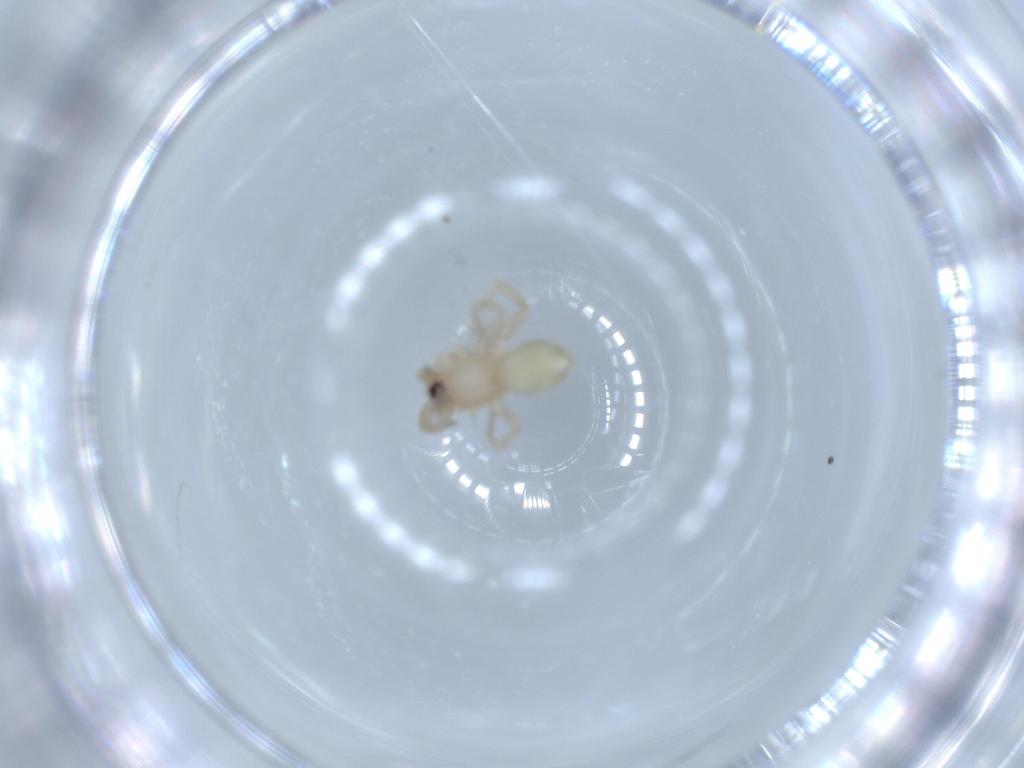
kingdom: Animalia
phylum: Arthropoda
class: Arachnida
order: Araneae
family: Gnaphosidae
